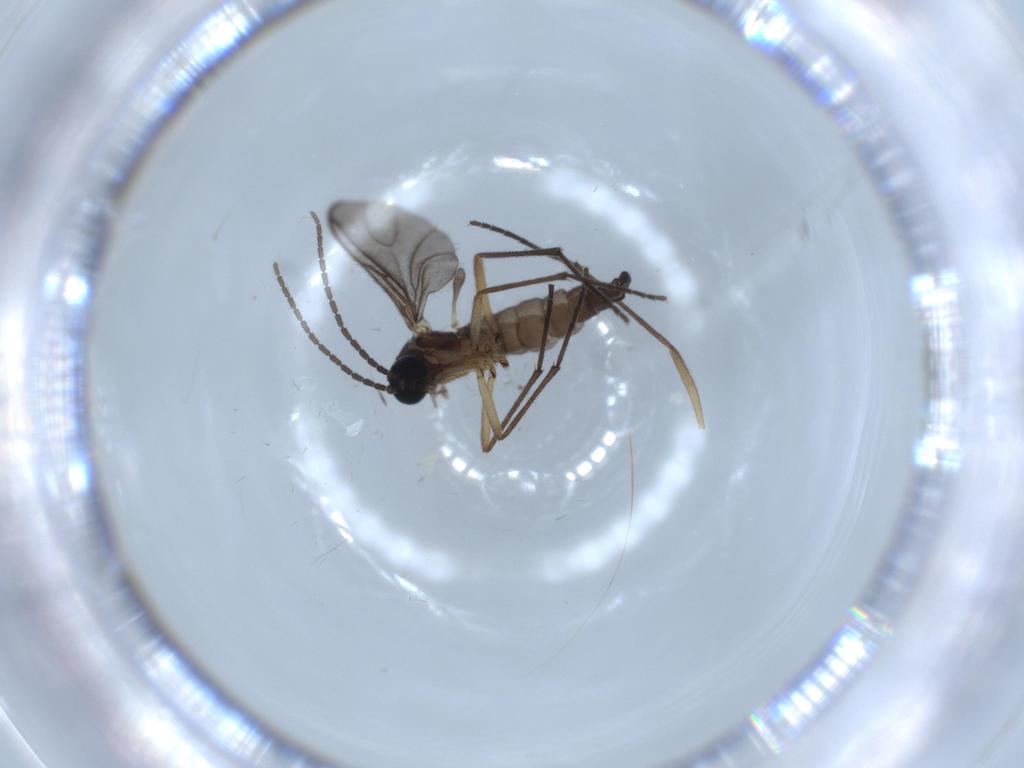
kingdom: Animalia
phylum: Arthropoda
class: Insecta
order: Diptera
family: Sciaridae
